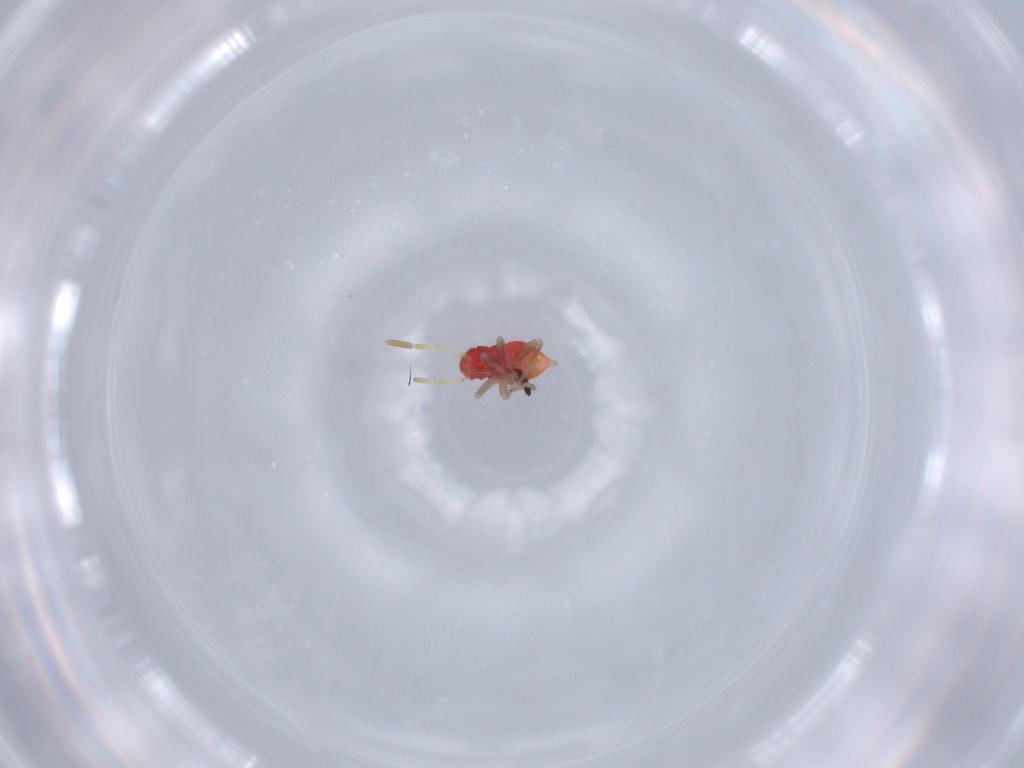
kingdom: Animalia
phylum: Arthropoda
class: Insecta
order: Hemiptera
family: Miridae
